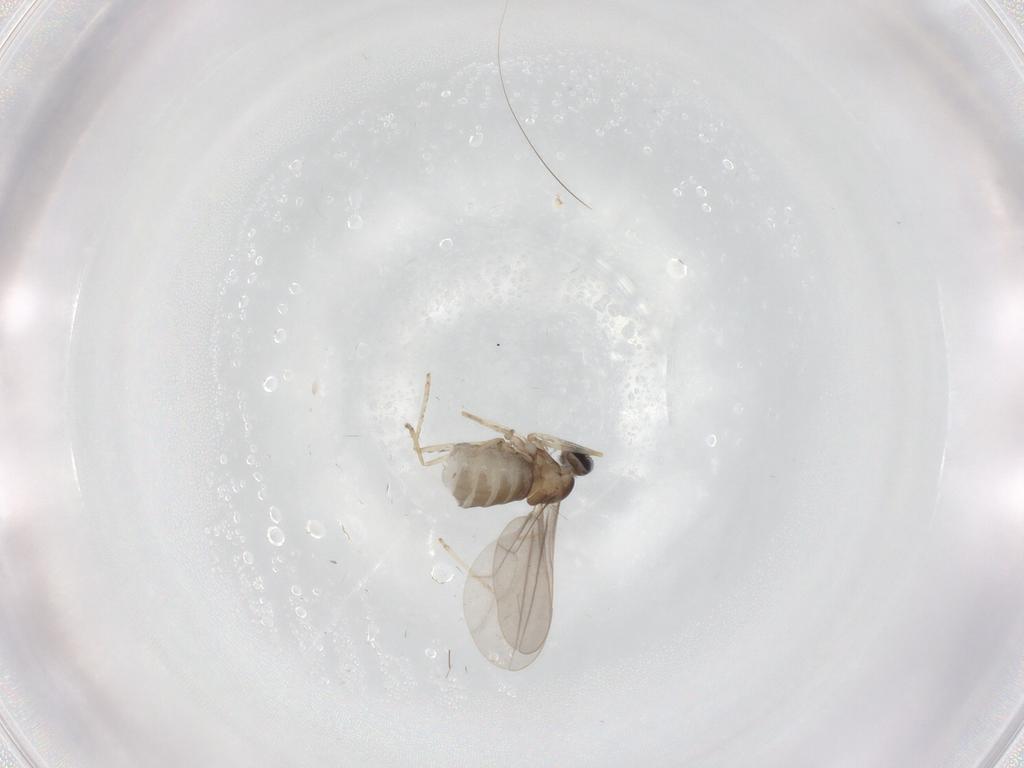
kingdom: Animalia
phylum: Arthropoda
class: Insecta
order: Diptera
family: Cecidomyiidae
